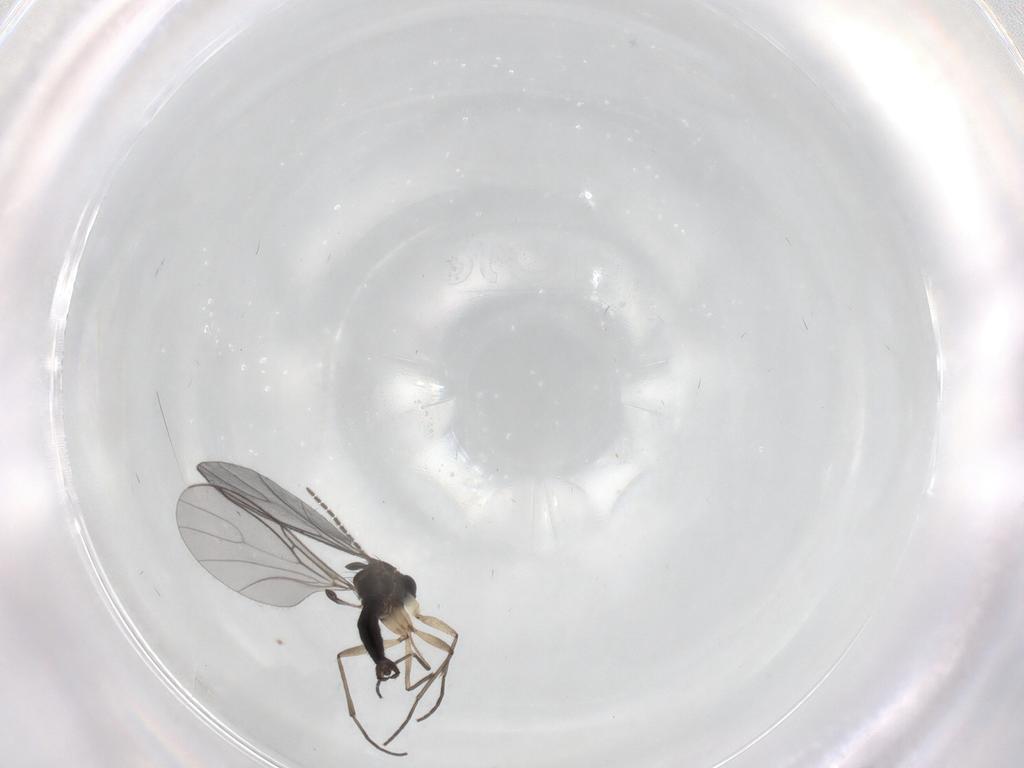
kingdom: Animalia
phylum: Arthropoda
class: Insecta
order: Diptera
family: Sciaridae
